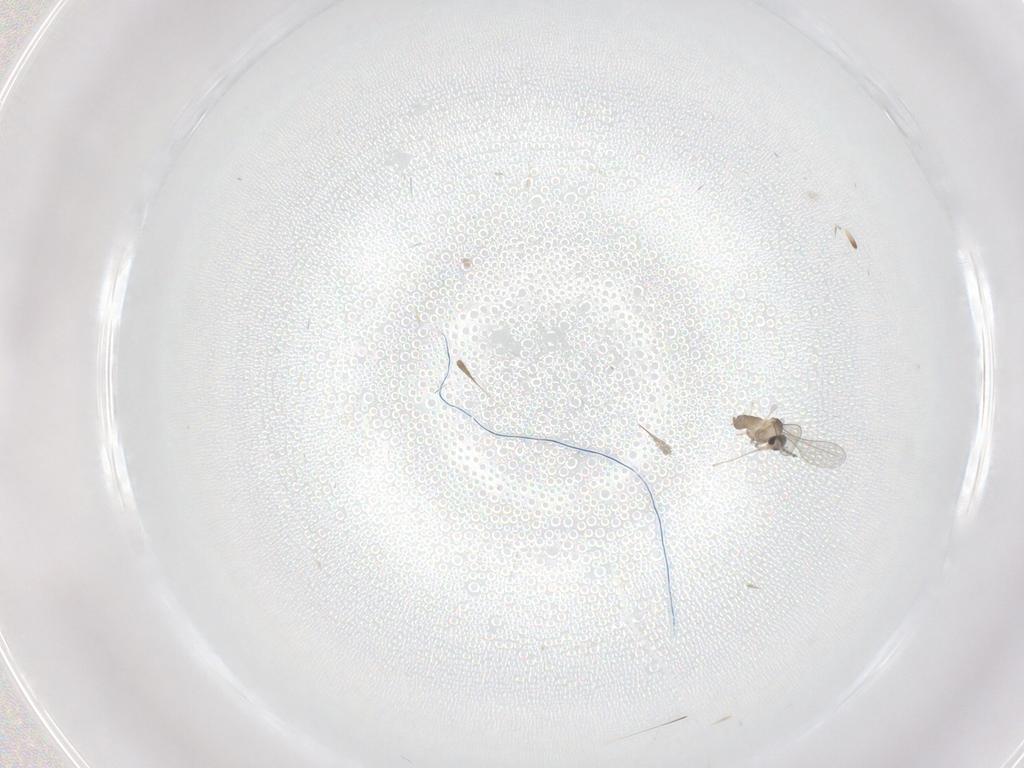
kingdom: Animalia
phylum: Arthropoda
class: Insecta
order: Diptera
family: Cecidomyiidae
